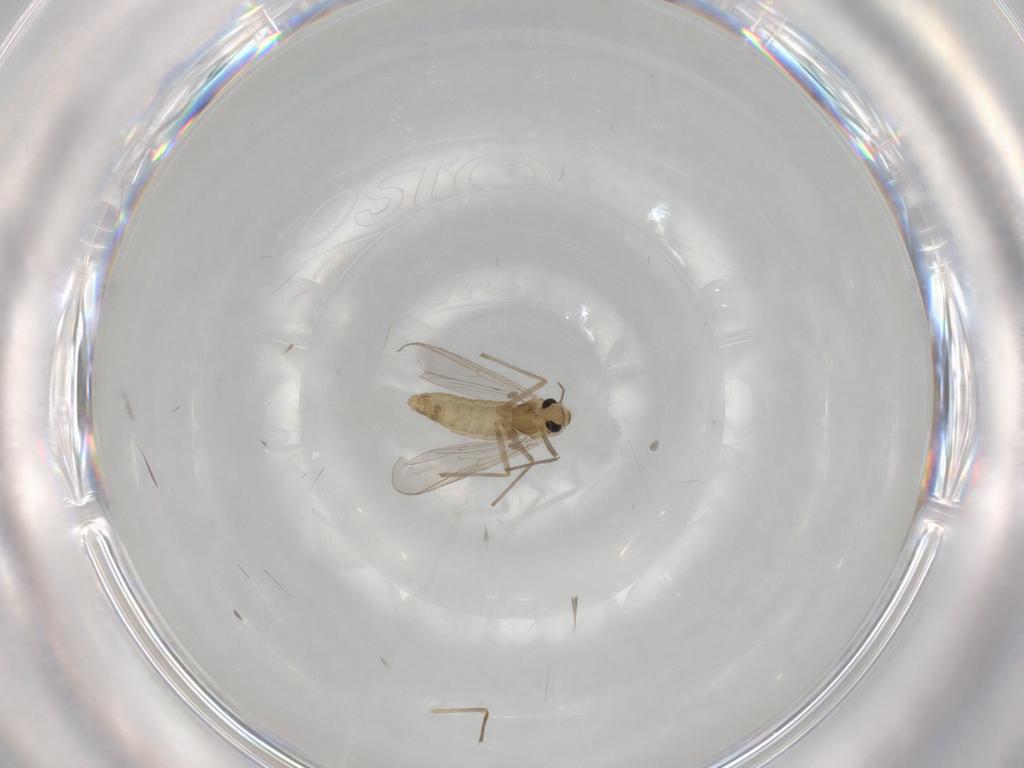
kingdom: Animalia
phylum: Arthropoda
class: Insecta
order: Diptera
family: Chironomidae
